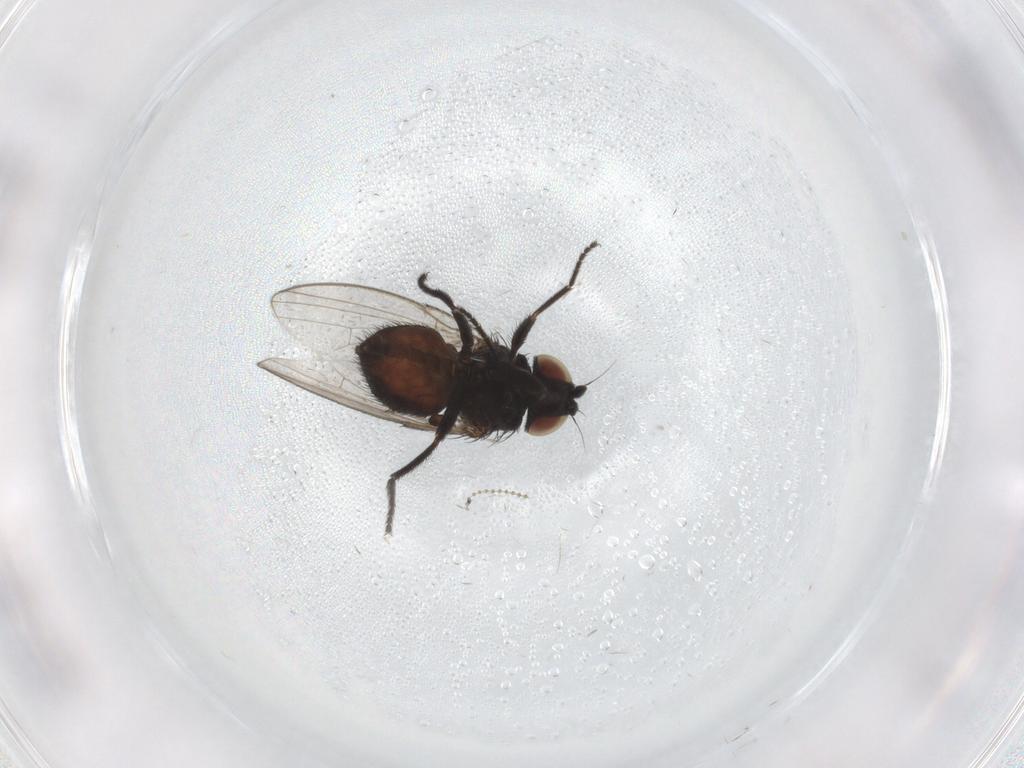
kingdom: Animalia
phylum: Arthropoda
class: Insecta
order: Diptera
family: Milichiidae
